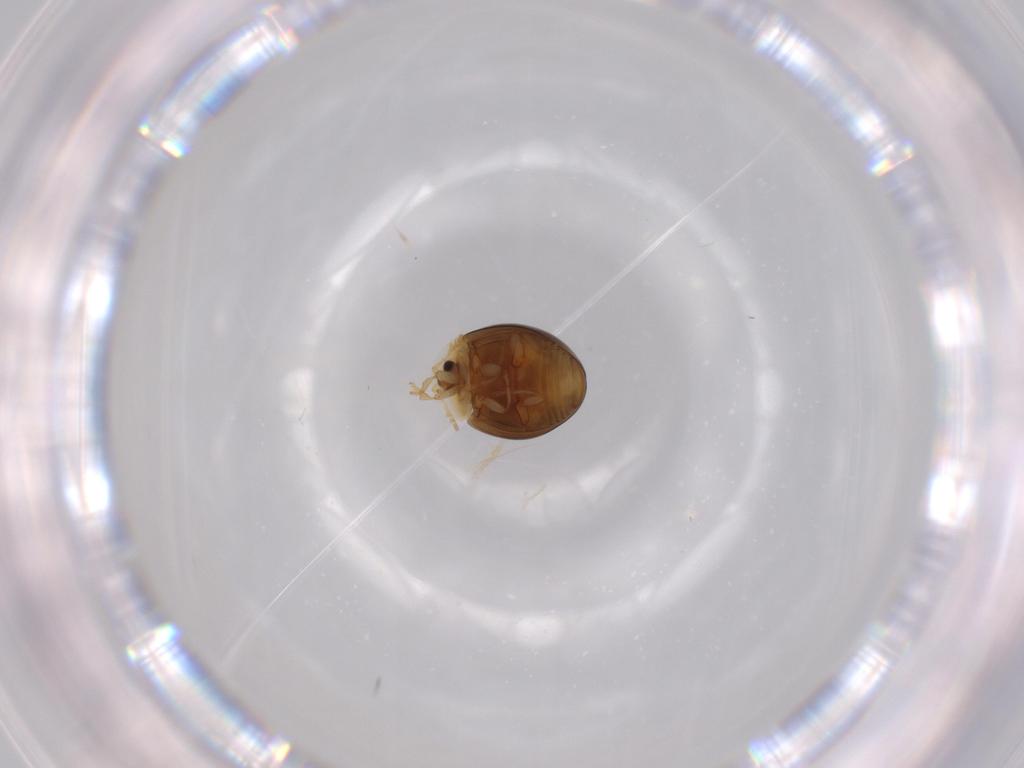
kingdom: Animalia
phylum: Arthropoda
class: Insecta
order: Coleoptera
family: Corylophidae
